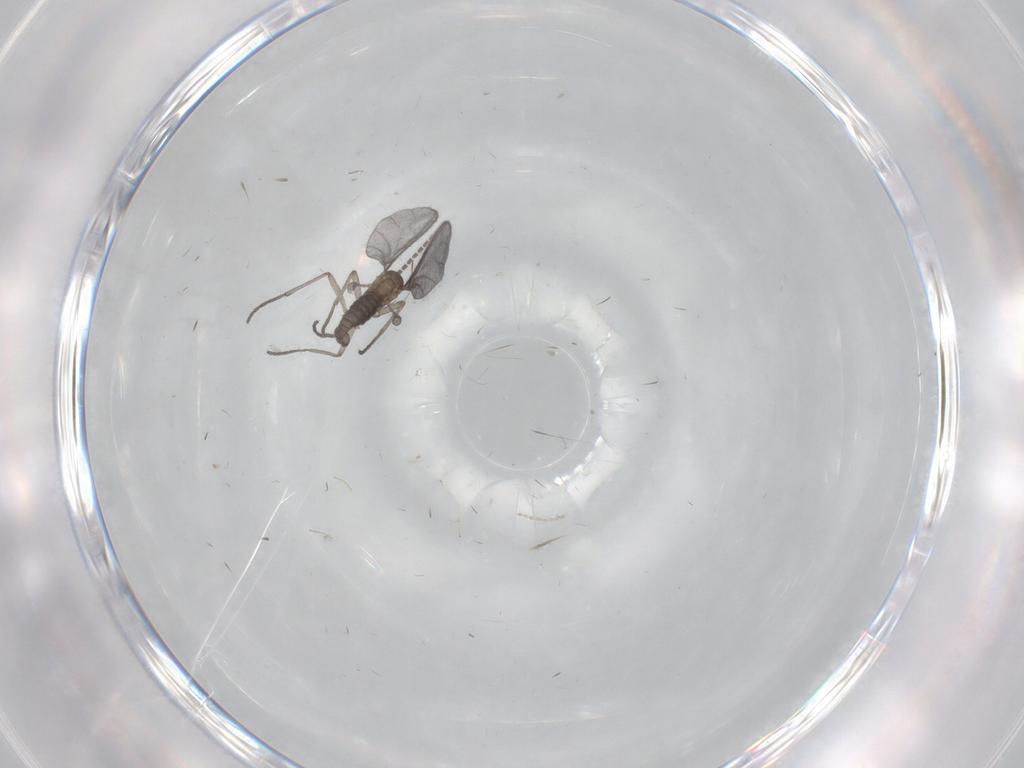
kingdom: Animalia
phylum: Arthropoda
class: Insecta
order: Diptera
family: Sciaridae
